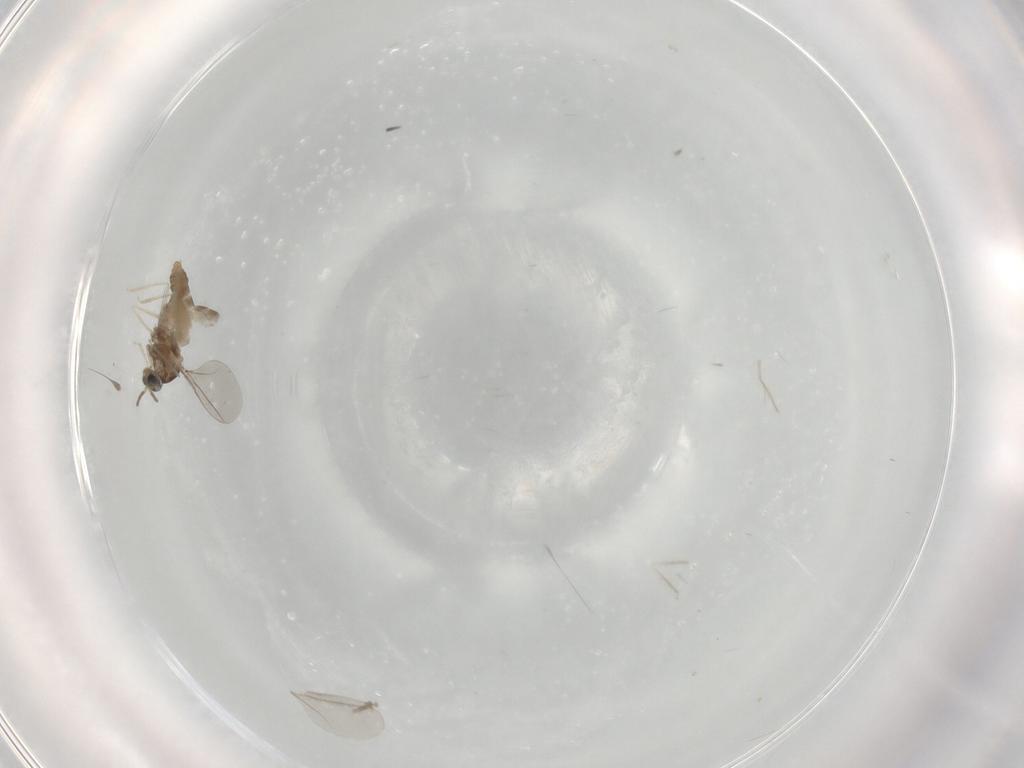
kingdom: Animalia
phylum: Arthropoda
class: Insecta
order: Diptera
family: Cecidomyiidae
